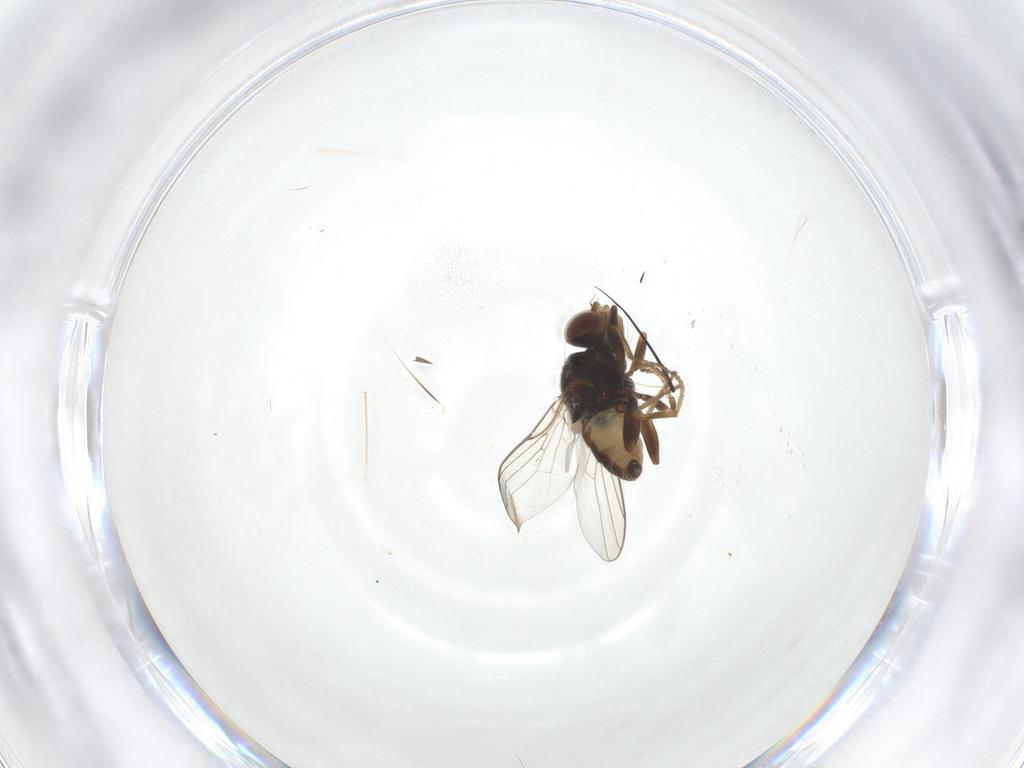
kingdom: Animalia
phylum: Arthropoda
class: Insecta
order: Diptera
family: Chloropidae
